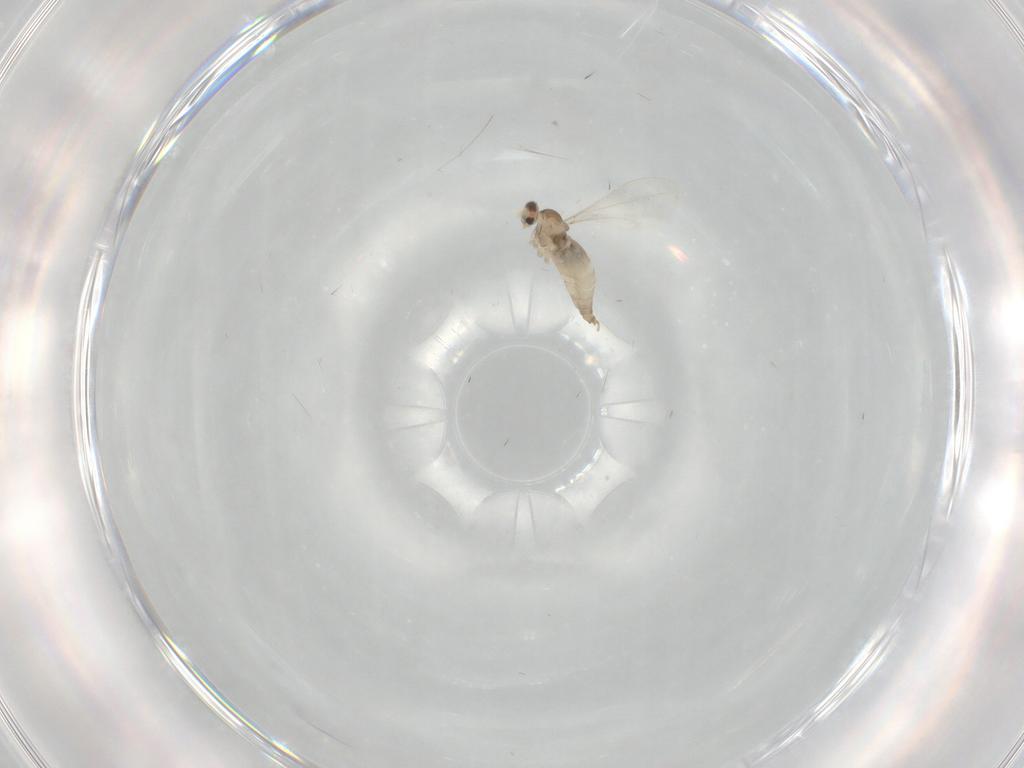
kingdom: Animalia
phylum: Arthropoda
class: Insecta
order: Diptera
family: Cecidomyiidae
